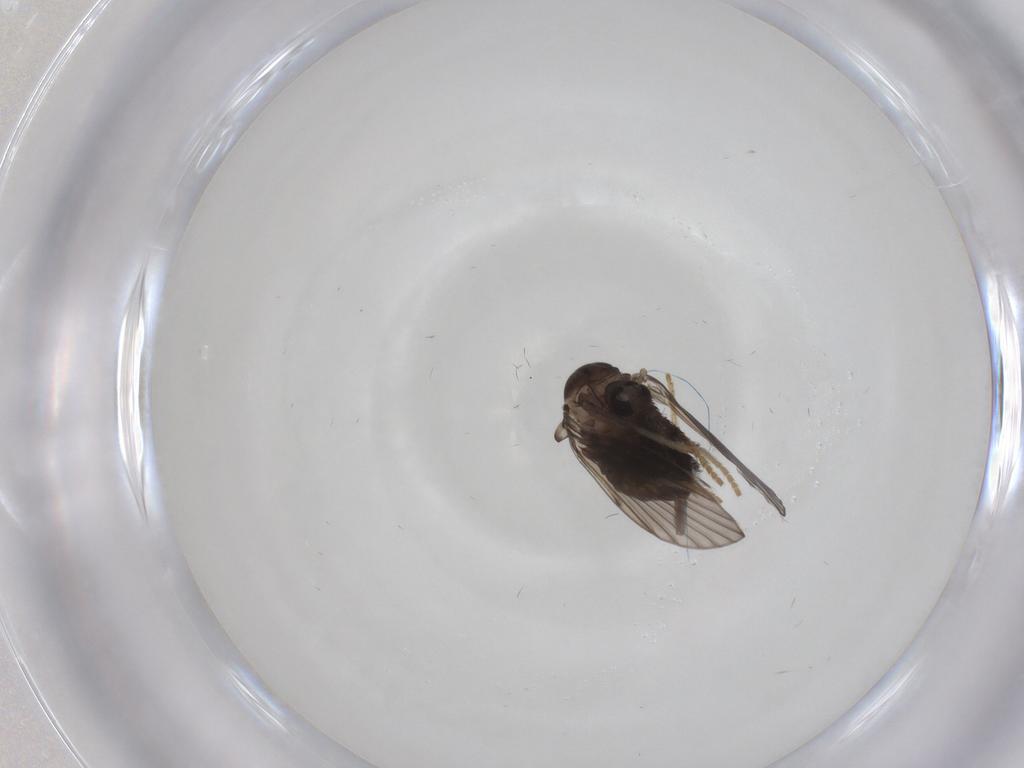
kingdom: Animalia
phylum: Arthropoda
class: Insecta
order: Diptera
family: Psychodidae
